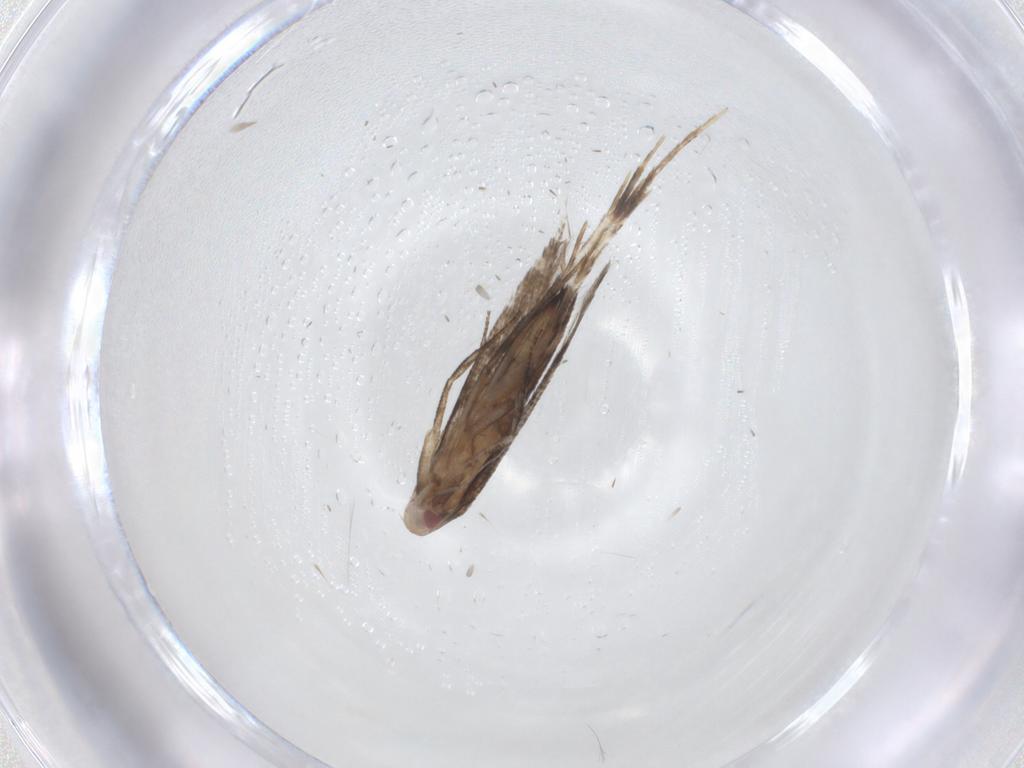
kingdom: Animalia
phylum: Arthropoda
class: Insecta
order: Lepidoptera
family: Cosmopterigidae
